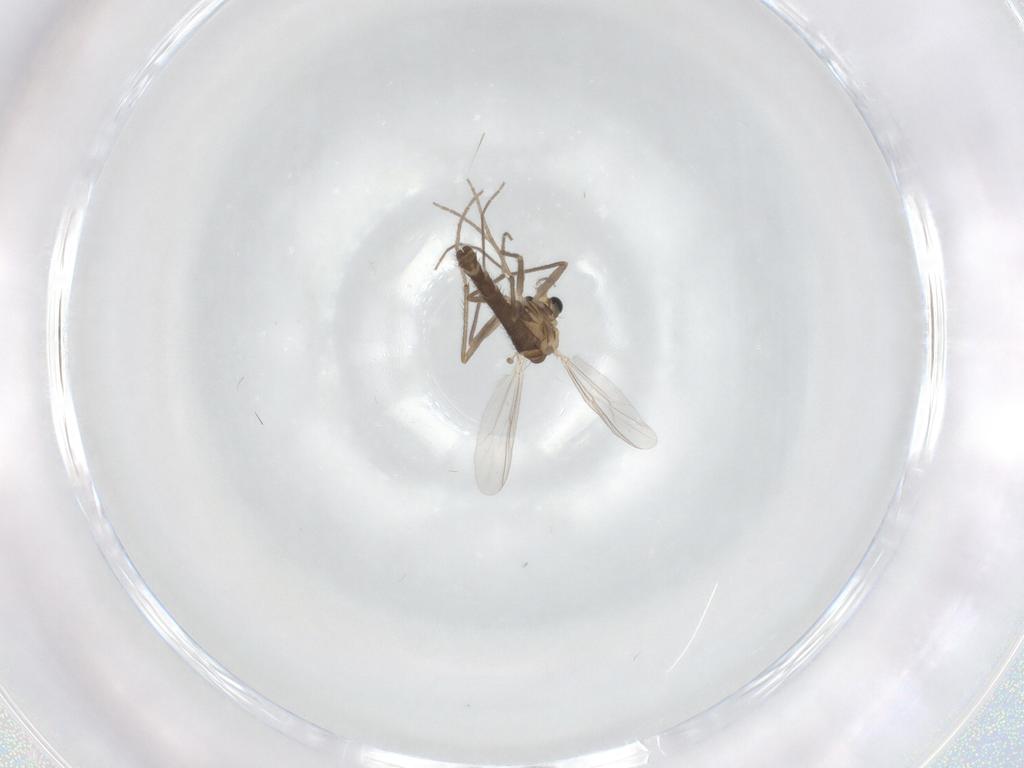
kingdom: Animalia
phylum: Arthropoda
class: Insecta
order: Diptera
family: Chironomidae
